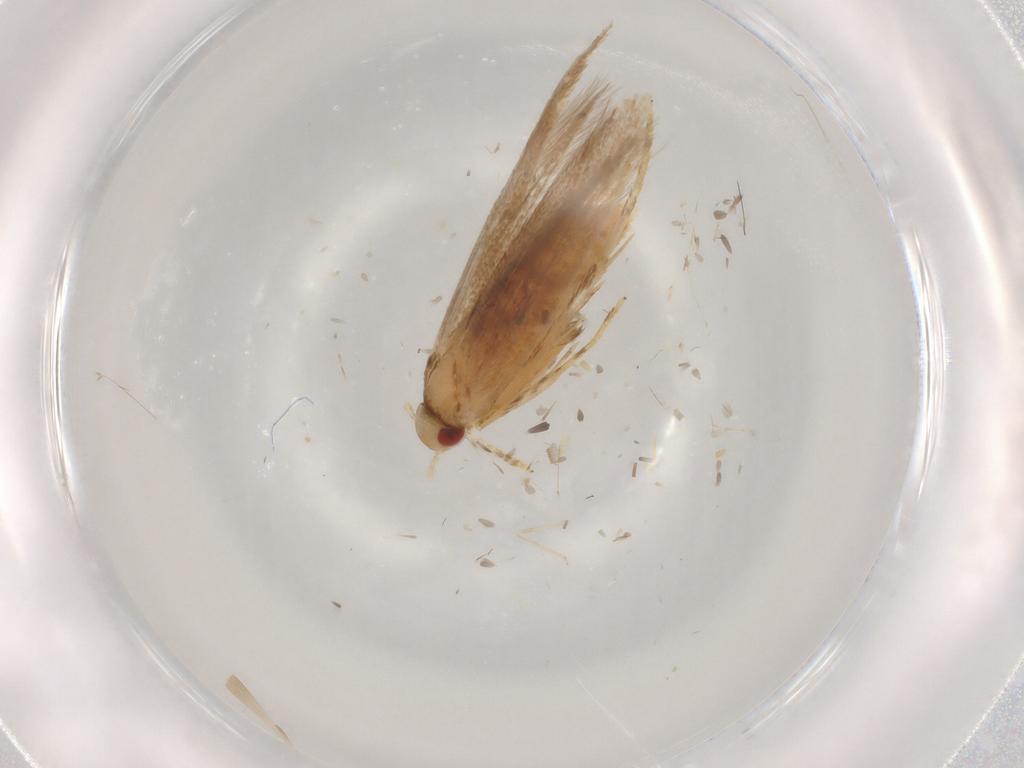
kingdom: Animalia
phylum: Arthropoda
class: Insecta
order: Lepidoptera
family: Cosmopterigidae
